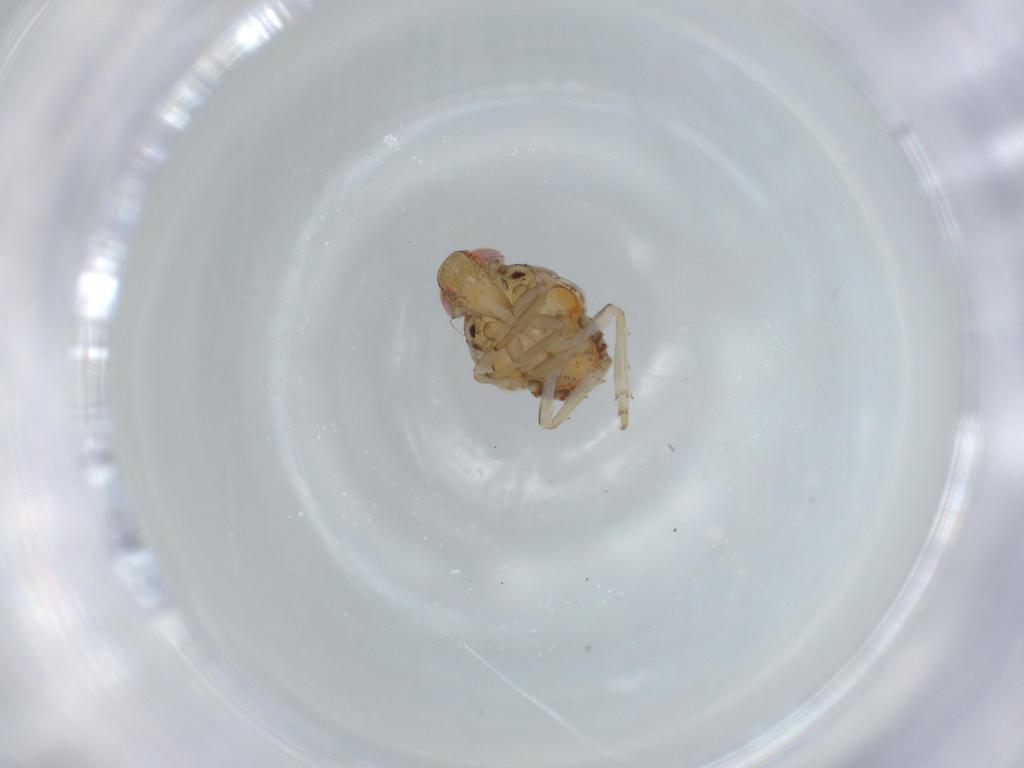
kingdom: Animalia
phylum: Arthropoda
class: Insecta
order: Hemiptera
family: Issidae
